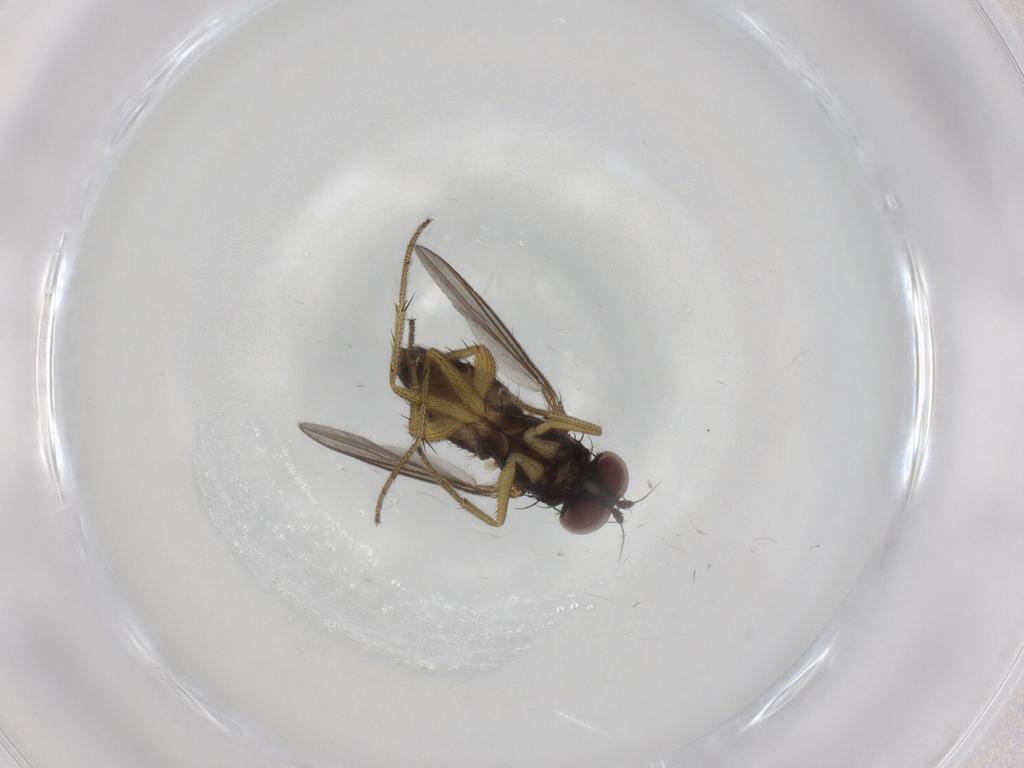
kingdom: Animalia
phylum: Arthropoda
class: Insecta
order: Diptera
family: Dolichopodidae
